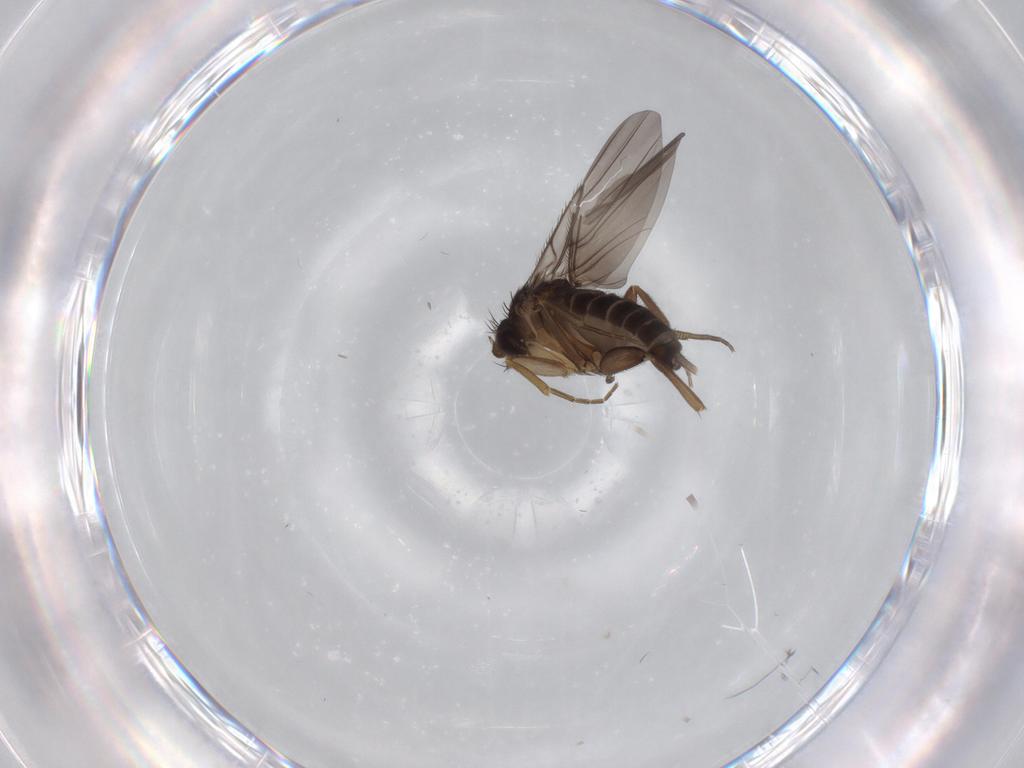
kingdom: Animalia
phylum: Arthropoda
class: Insecta
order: Diptera
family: Phoridae
